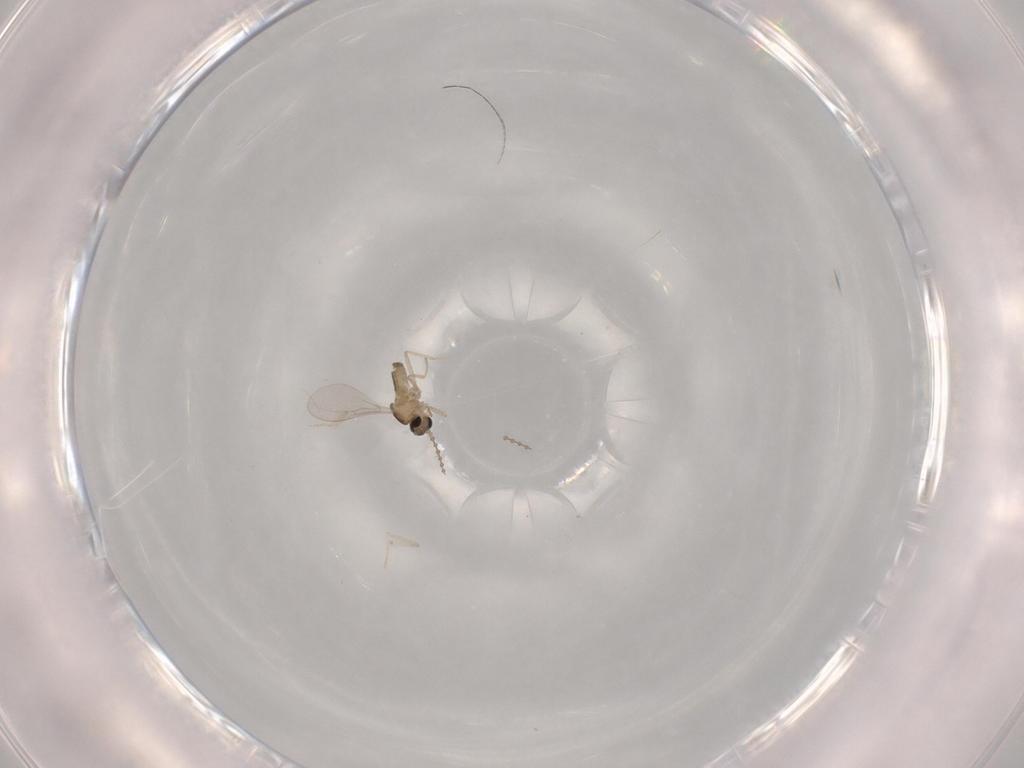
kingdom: Animalia
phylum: Arthropoda
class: Insecta
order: Diptera
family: Cecidomyiidae
